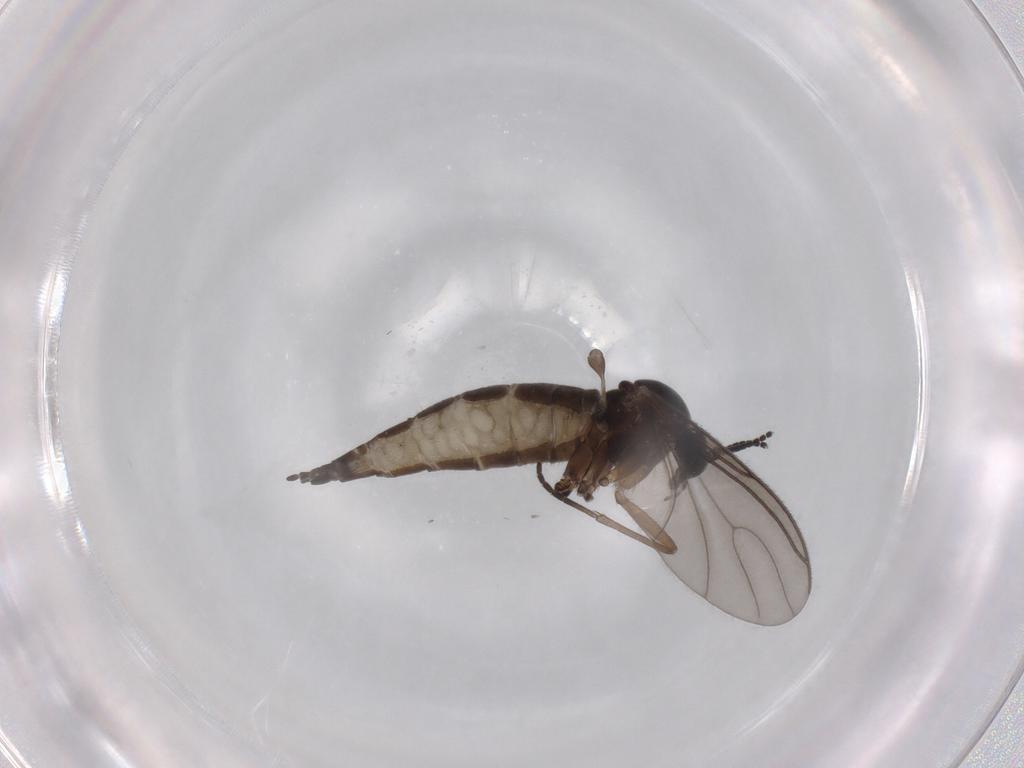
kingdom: Animalia
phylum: Arthropoda
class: Insecta
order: Diptera
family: Sciaridae
